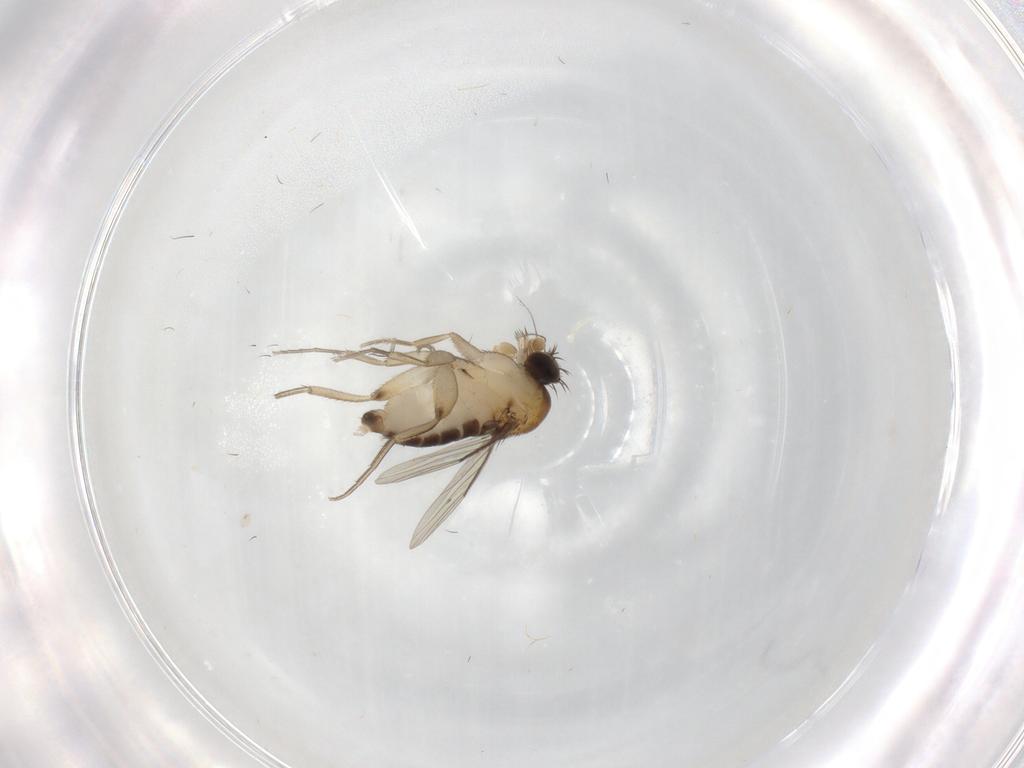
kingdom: Animalia
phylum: Arthropoda
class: Insecta
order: Diptera
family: Phoridae
